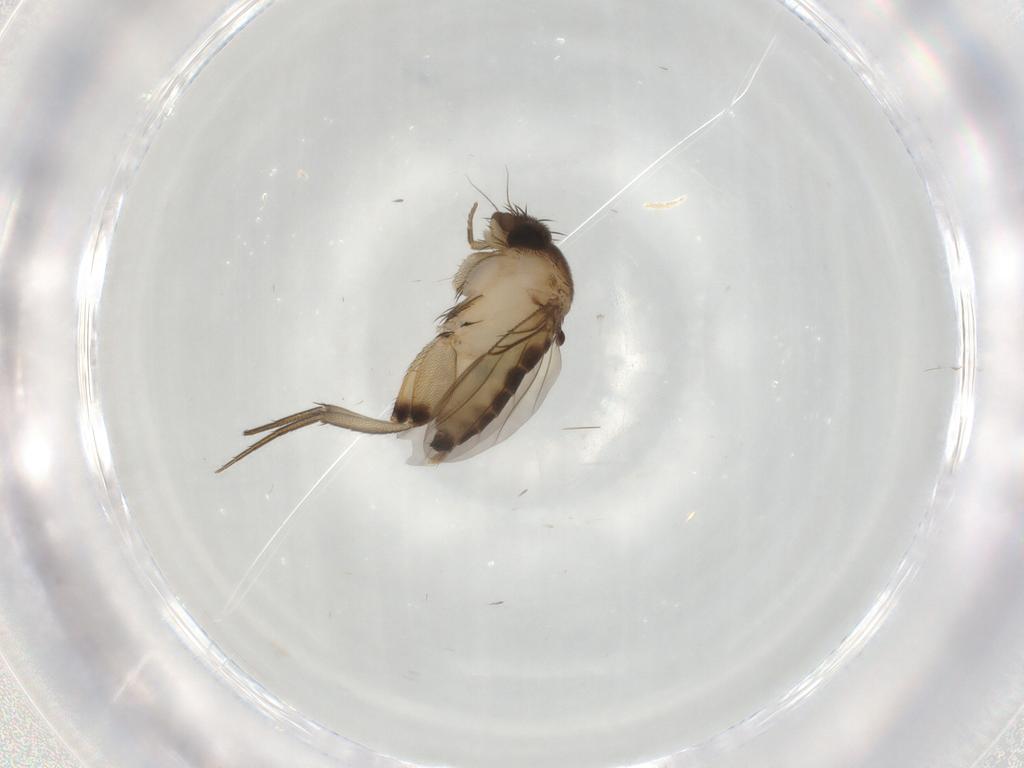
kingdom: Animalia
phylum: Arthropoda
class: Insecta
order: Diptera
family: Phoridae
